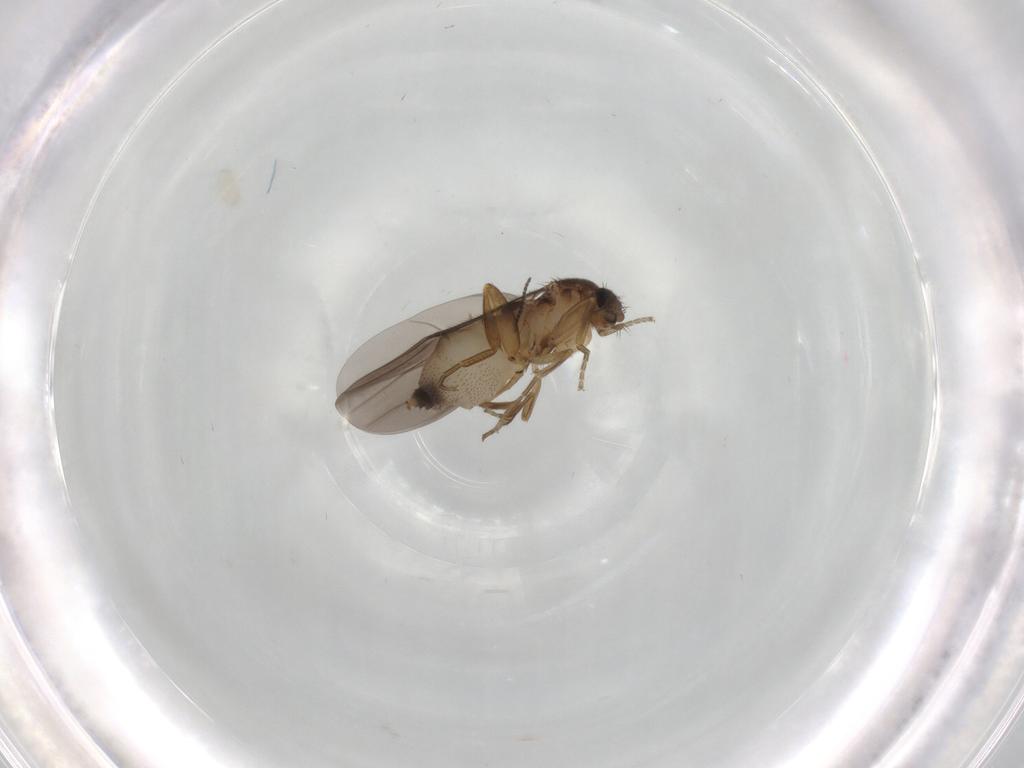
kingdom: Animalia
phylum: Arthropoda
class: Insecta
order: Diptera
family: Phoridae
